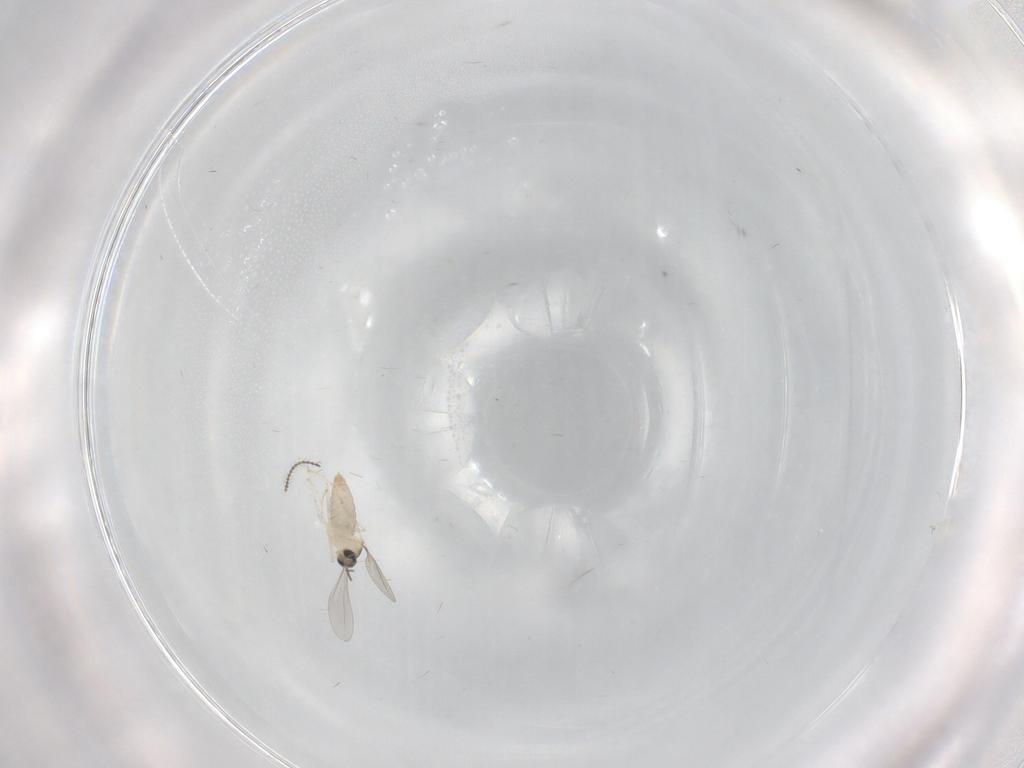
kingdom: Animalia
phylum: Arthropoda
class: Insecta
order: Diptera
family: Cecidomyiidae
